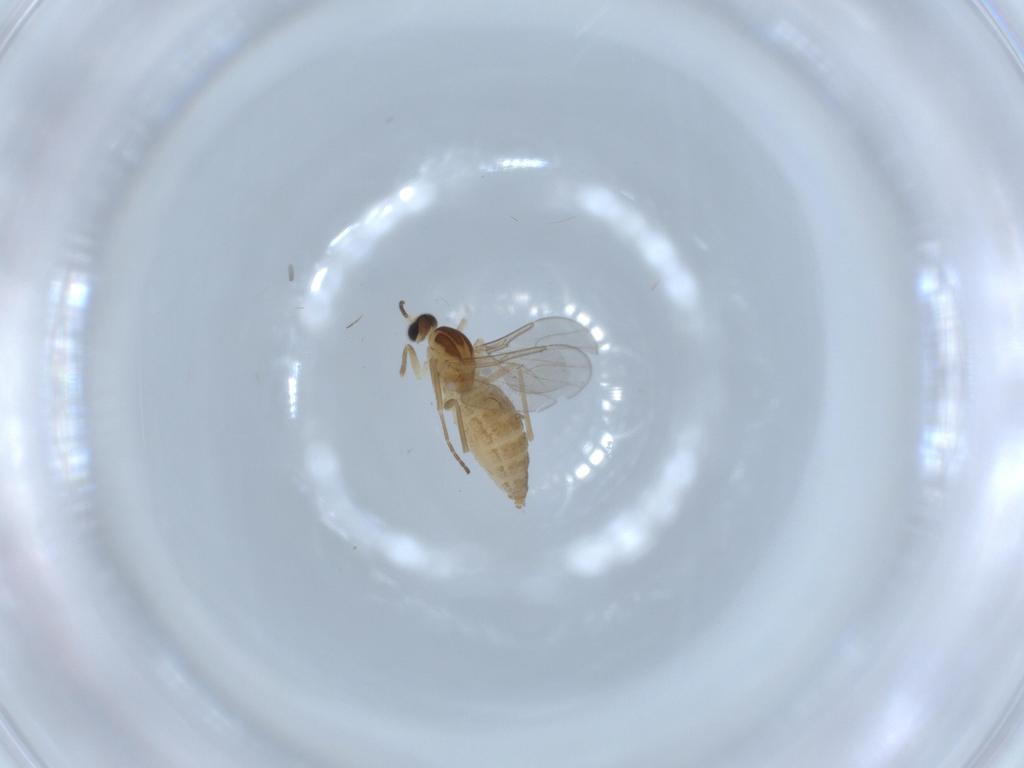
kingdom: Animalia
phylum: Arthropoda
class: Insecta
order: Diptera
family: Cecidomyiidae
